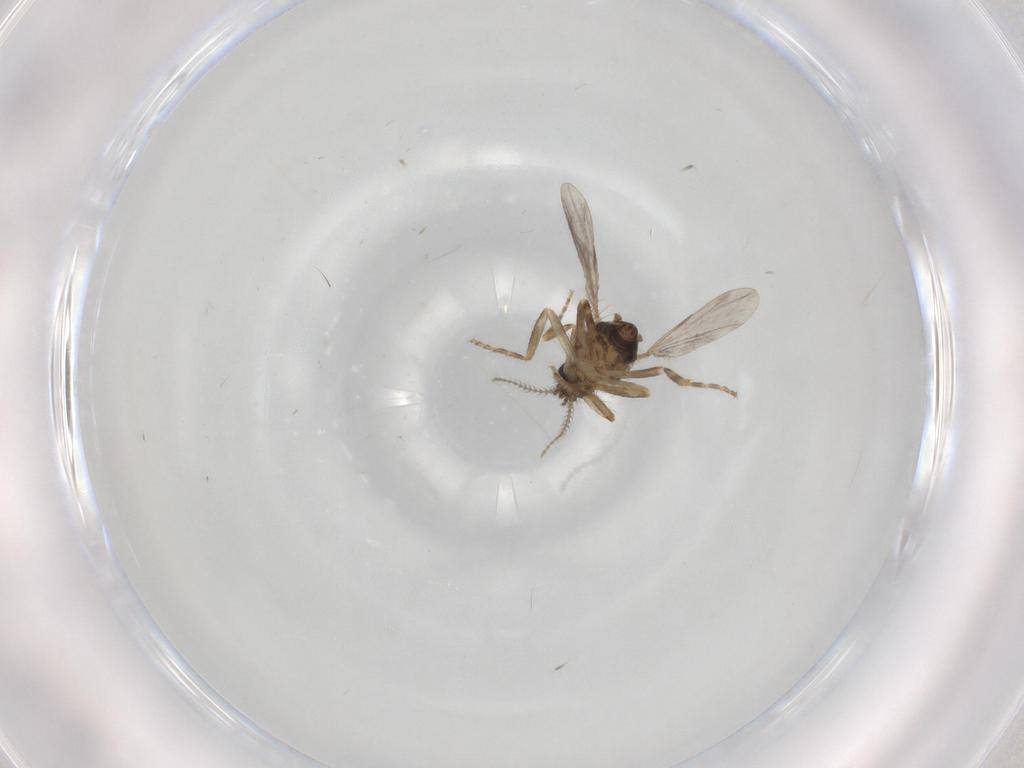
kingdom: Animalia
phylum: Arthropoda
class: Insecta
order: Diptera
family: Ceratopogonidae
